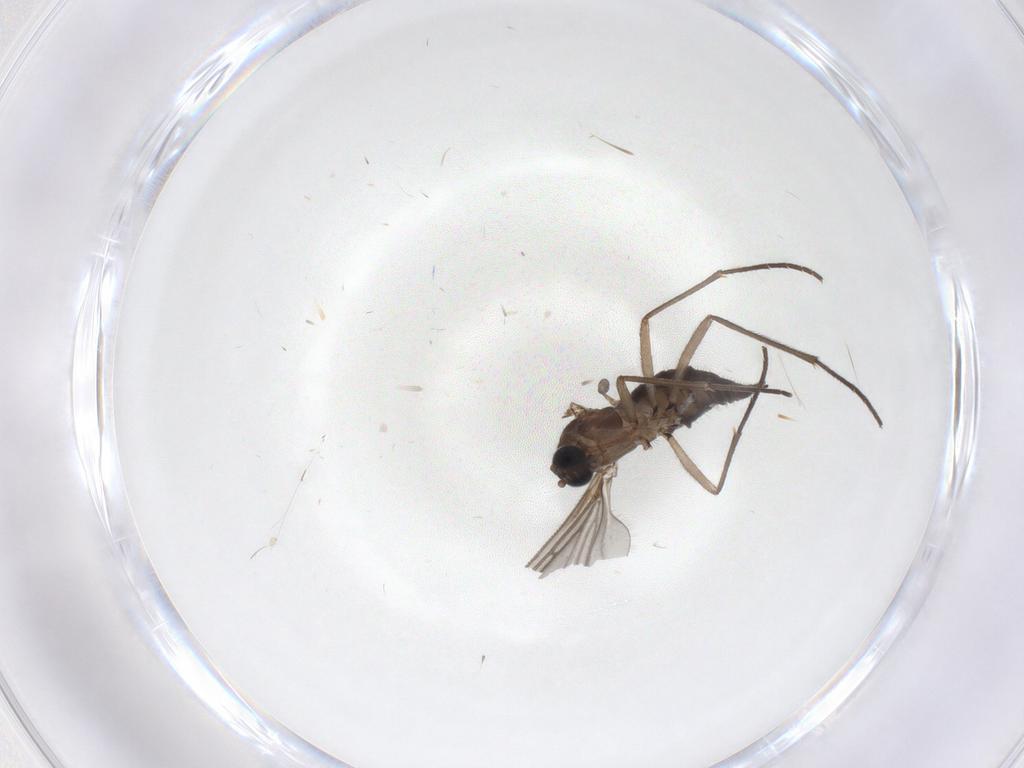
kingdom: Animalia
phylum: Arthropoda
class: Insecta
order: Diptera
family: Sciaridae
